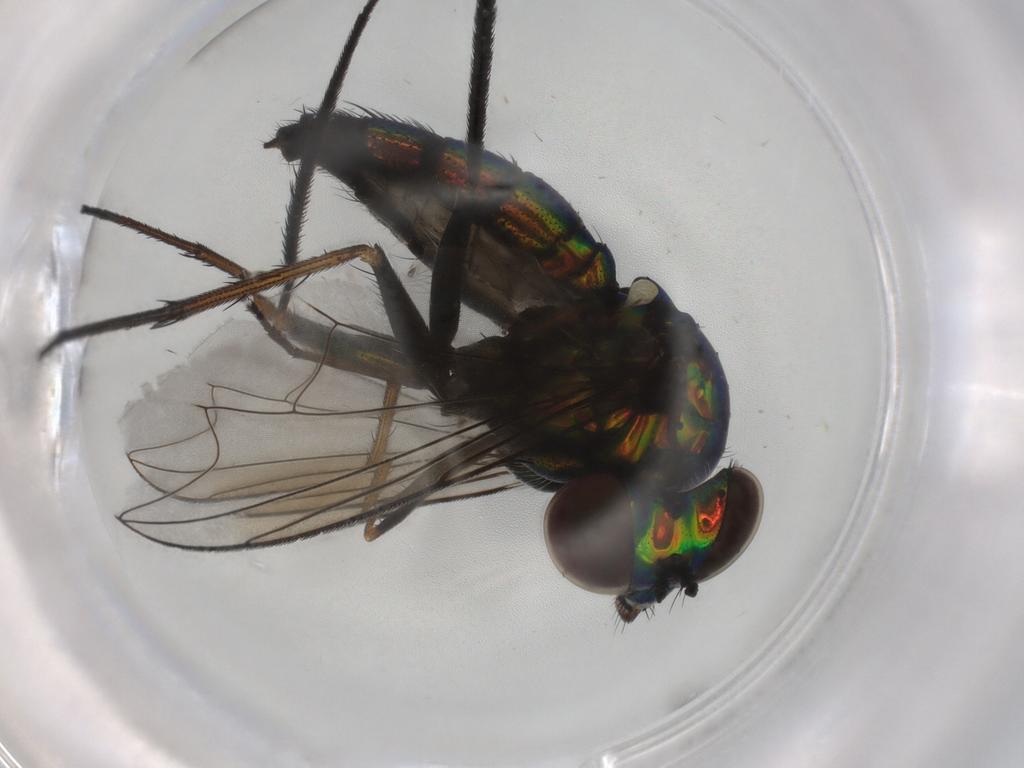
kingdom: Animalia
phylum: Arthropoda
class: Insecta
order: Diptera
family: Dolichopodidae
